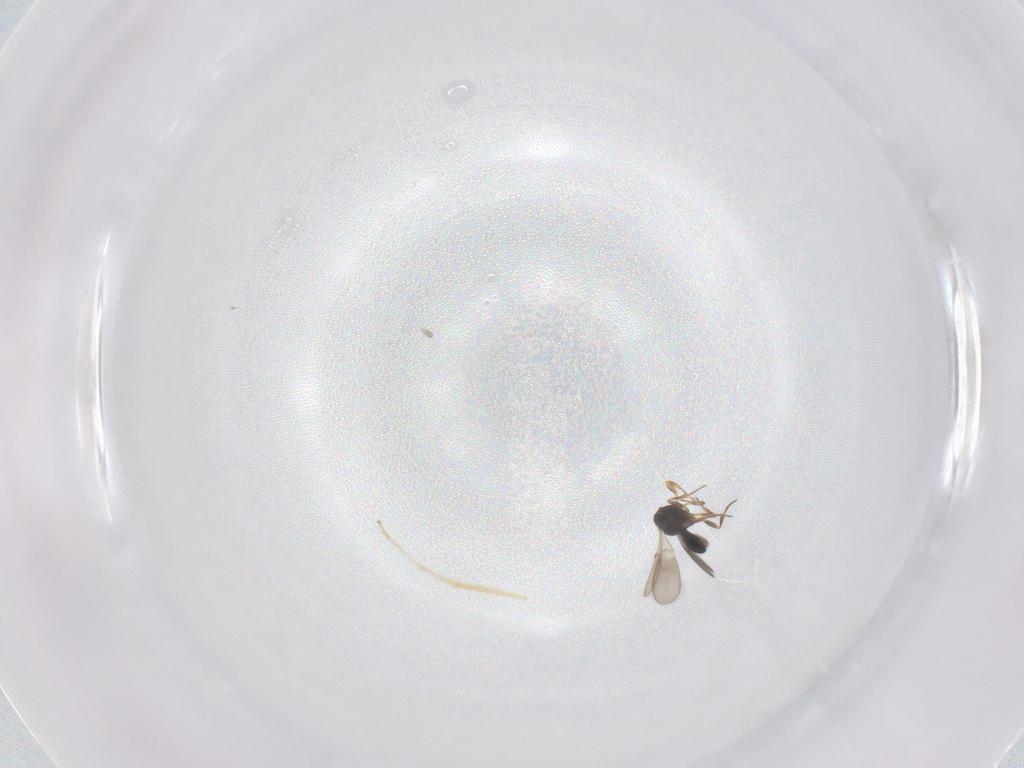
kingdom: Animalia
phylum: Arthropoda
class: Insecta
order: Hymenoptera
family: Scelionidae
